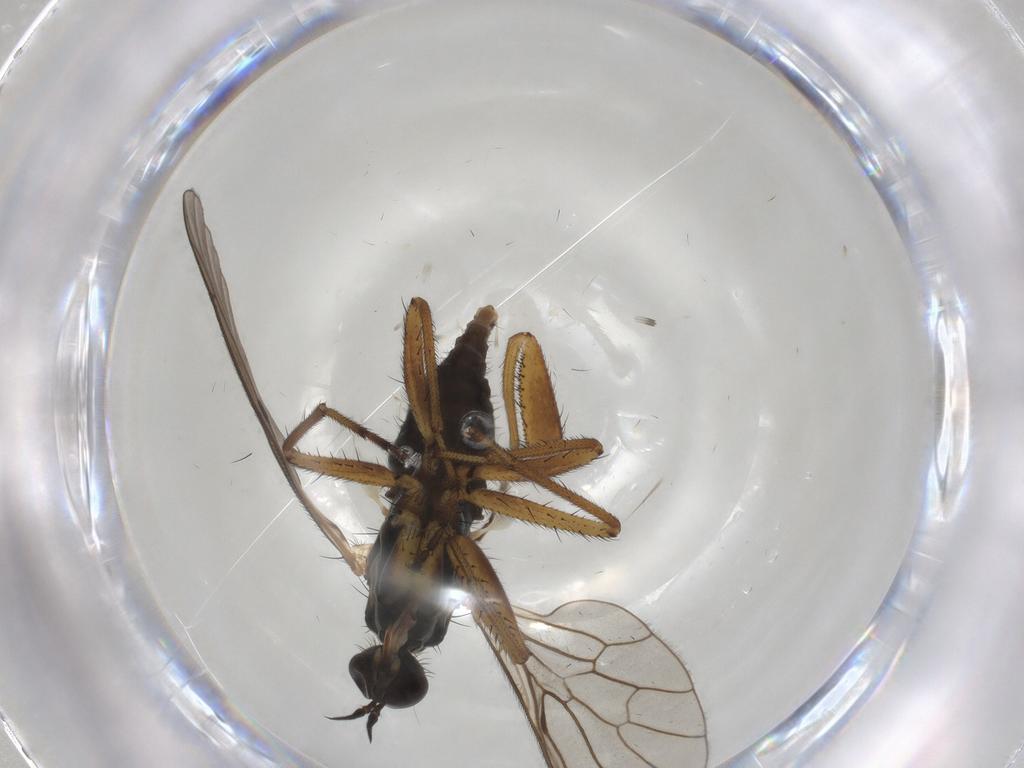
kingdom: Animalia
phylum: Arthropoda
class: Insecta
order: Diptera
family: Empididae
